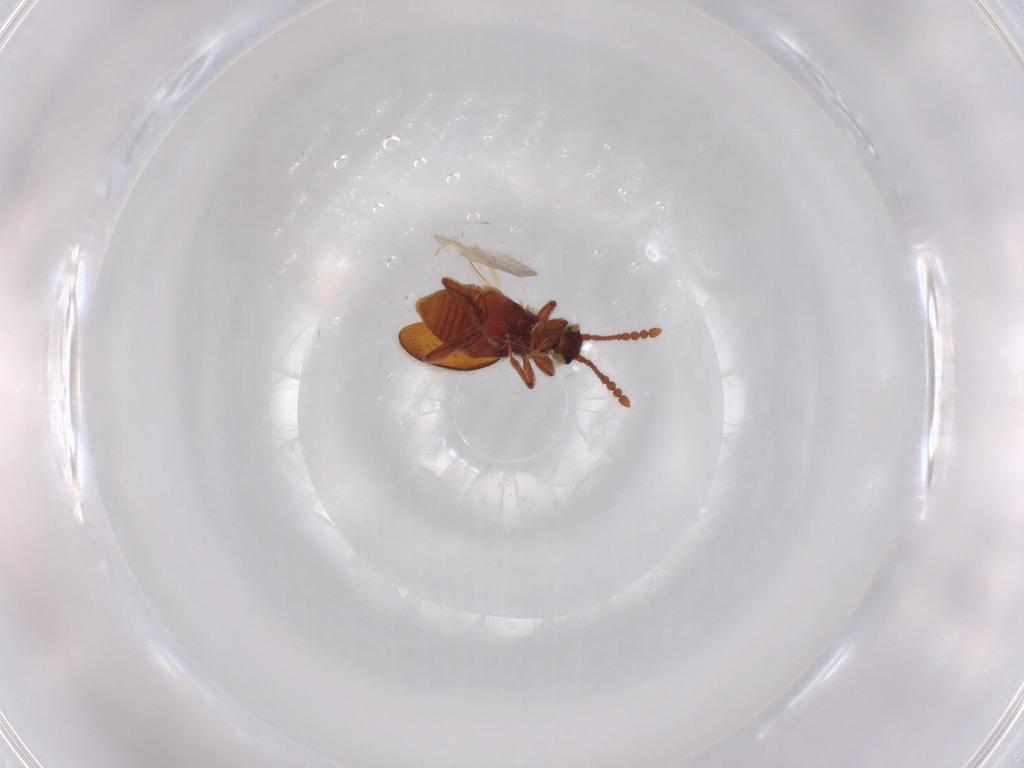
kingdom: Animalia
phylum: Arthropoda
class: Insecta
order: Coleoptera
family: Staphylinidae
